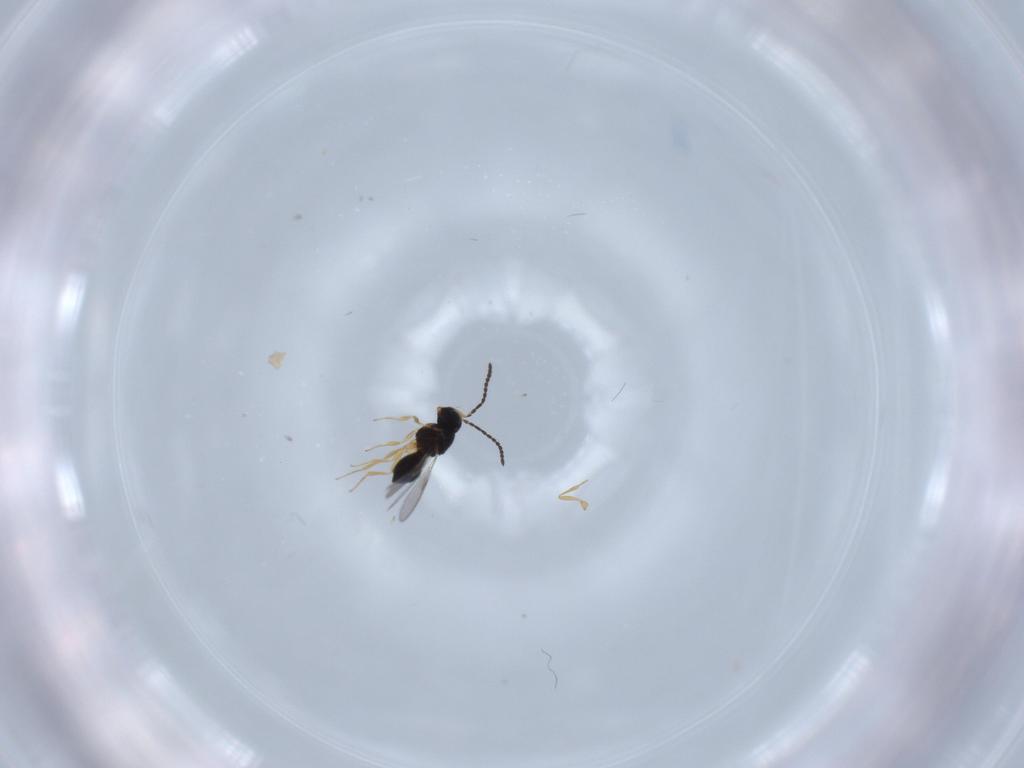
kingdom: Animalia
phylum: Arthropoda
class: Insecta
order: Hymenoptera
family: Scelionidae
